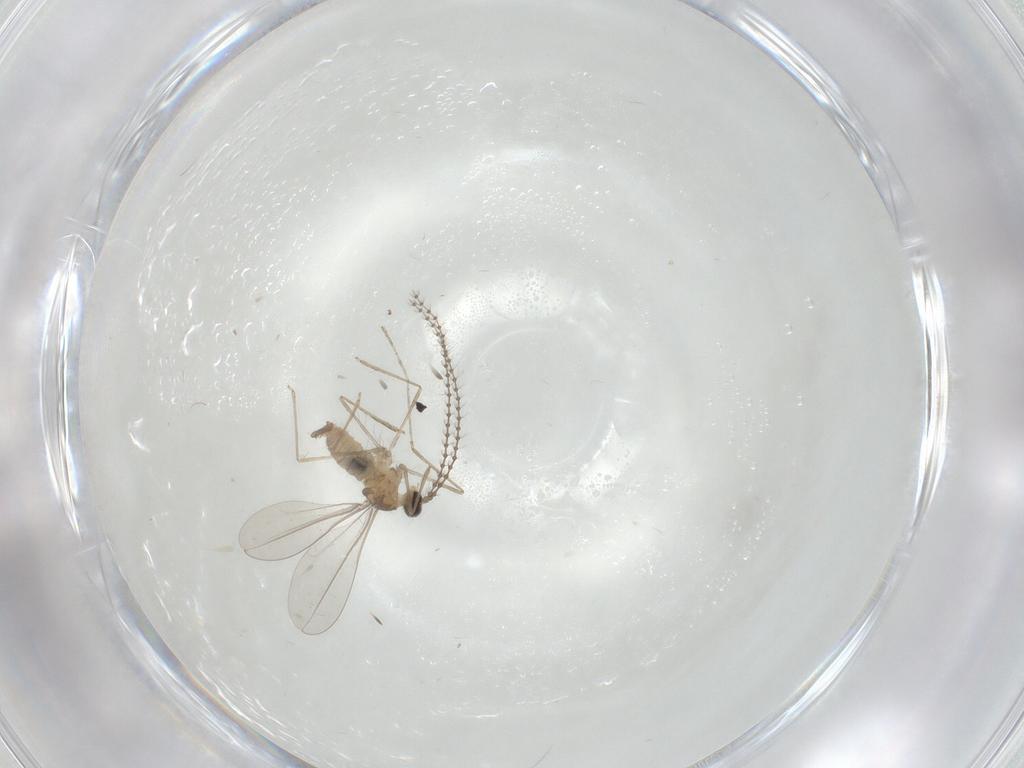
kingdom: Animalia
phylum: Arthropoda
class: Insecta
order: Diptera
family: Cecidomyiidae
